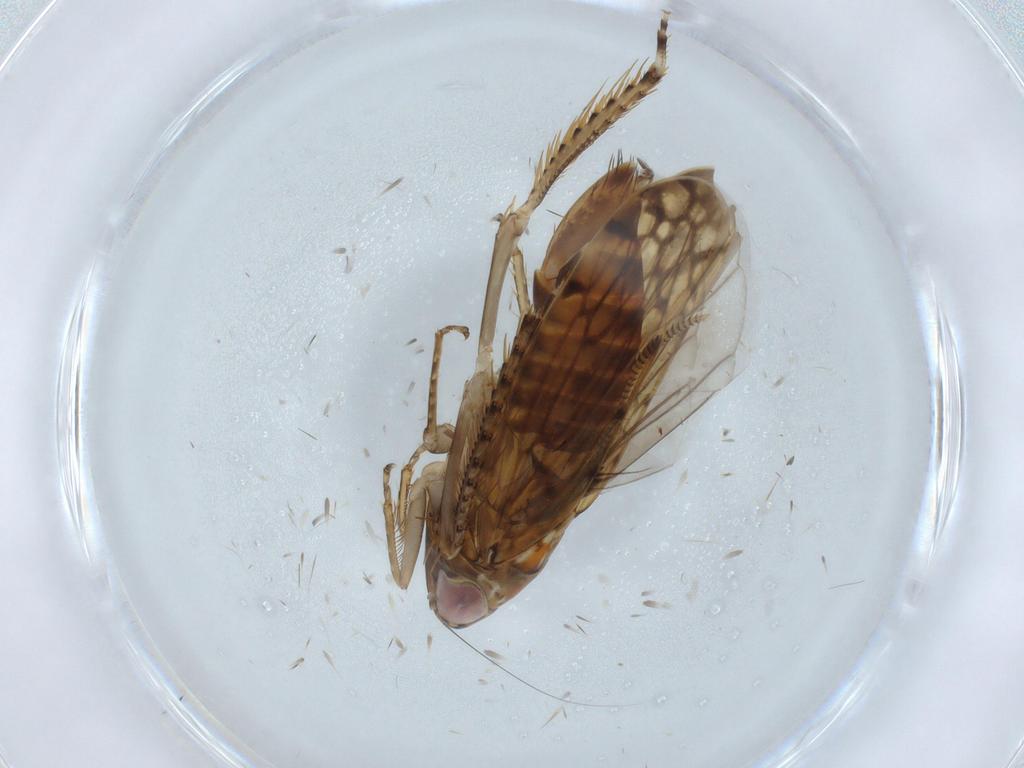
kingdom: Animalia
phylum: Arthropoda
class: Insecta
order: Hemiptera
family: Cicadellidae
